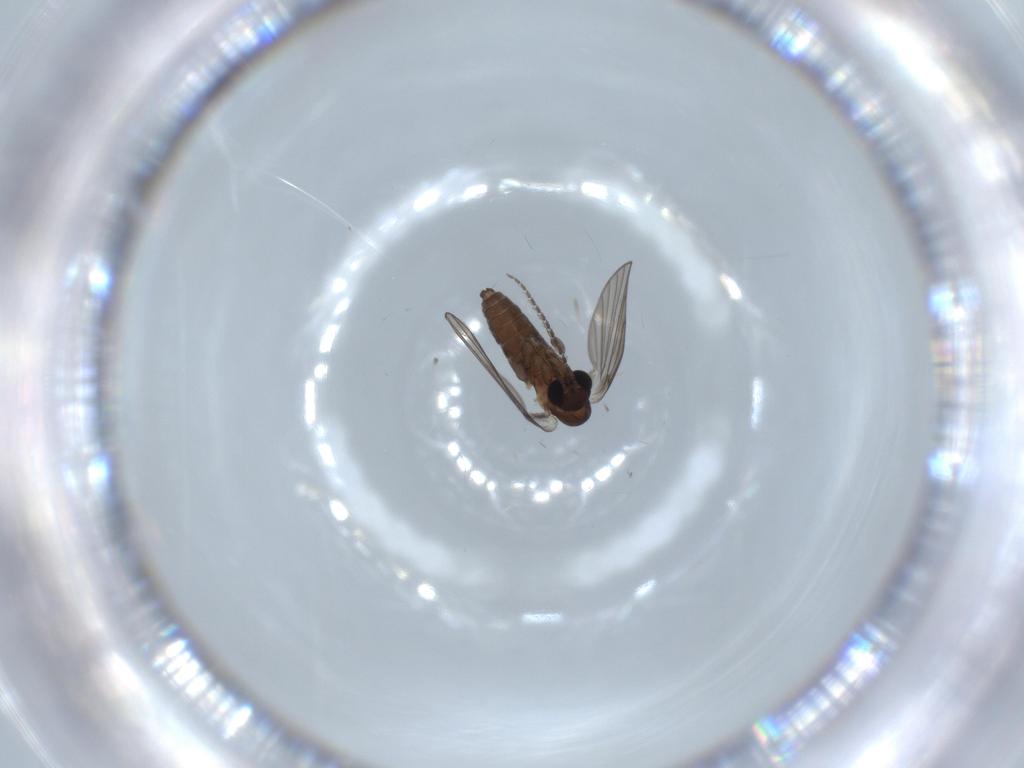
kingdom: Animalia
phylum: Arthropoda
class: Insecta
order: Diptera
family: Psychodidae
